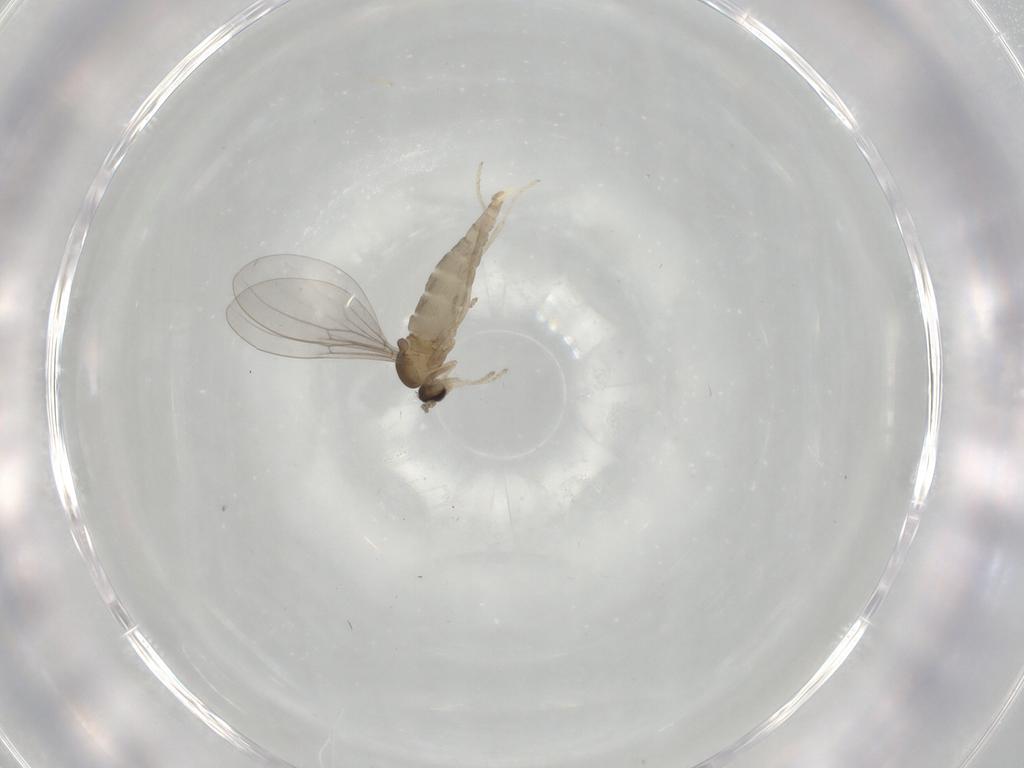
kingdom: Animalia
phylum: Arthropoda
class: Insecta
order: Diptera
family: Cecidomyiidae
